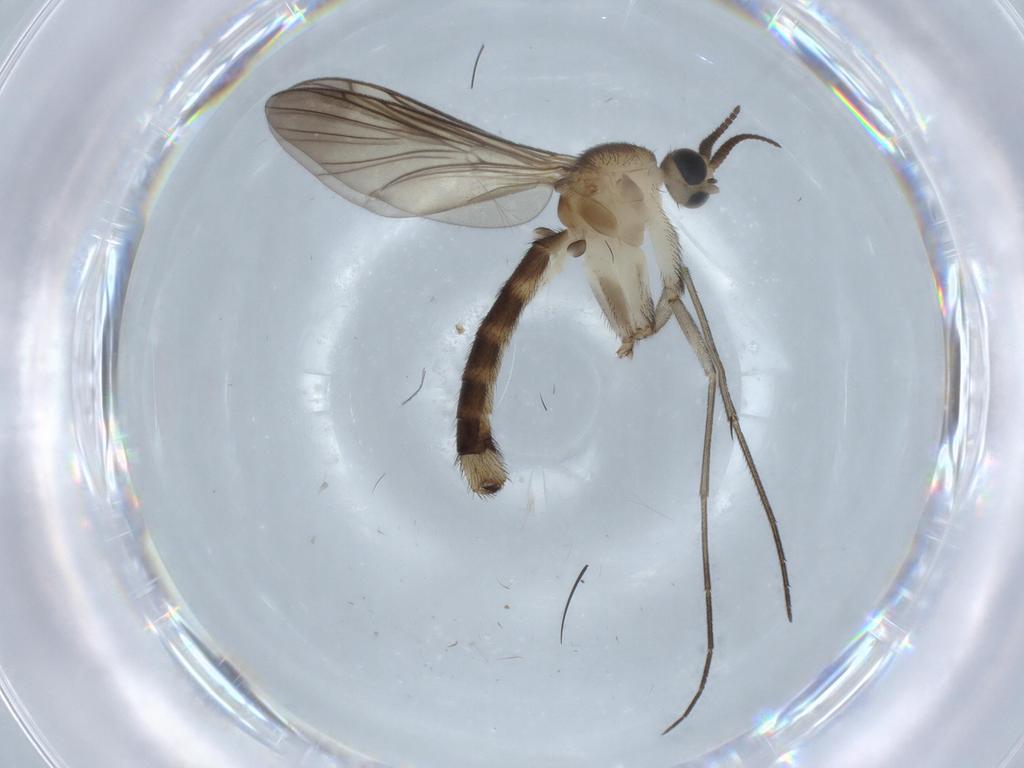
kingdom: Animalia
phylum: Arthropoda
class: Insecta
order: Diptera
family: Mycetophilidae
